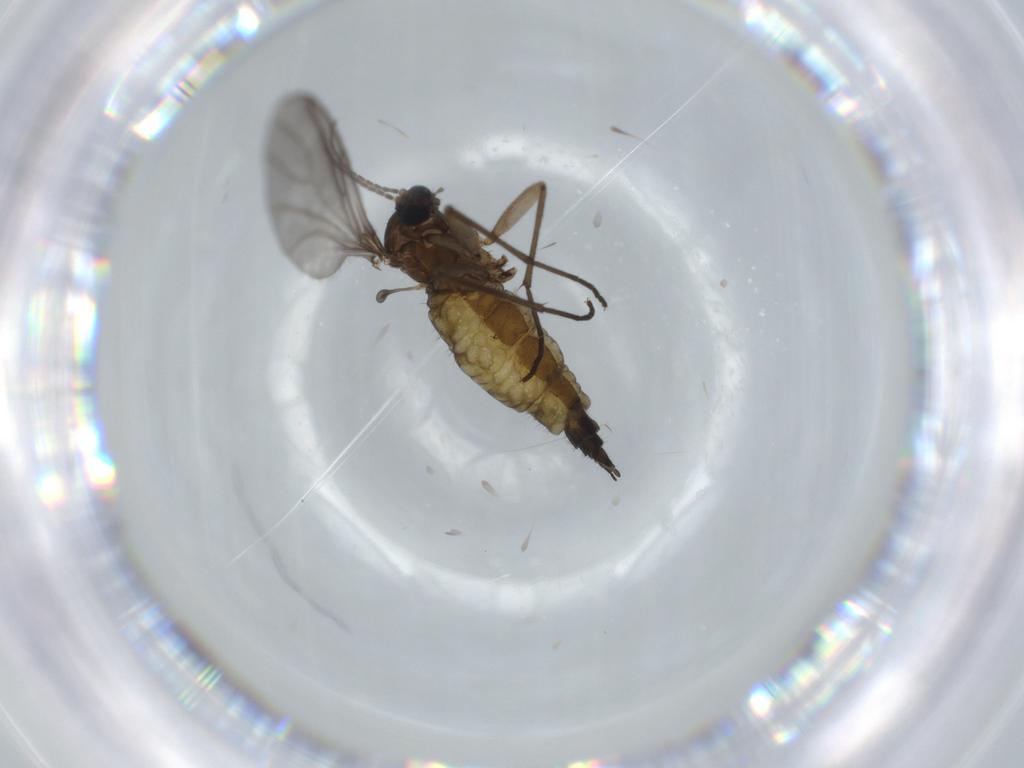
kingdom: Animalia
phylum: Arthropoda
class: Insecta
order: Diptera
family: Sciaridae
